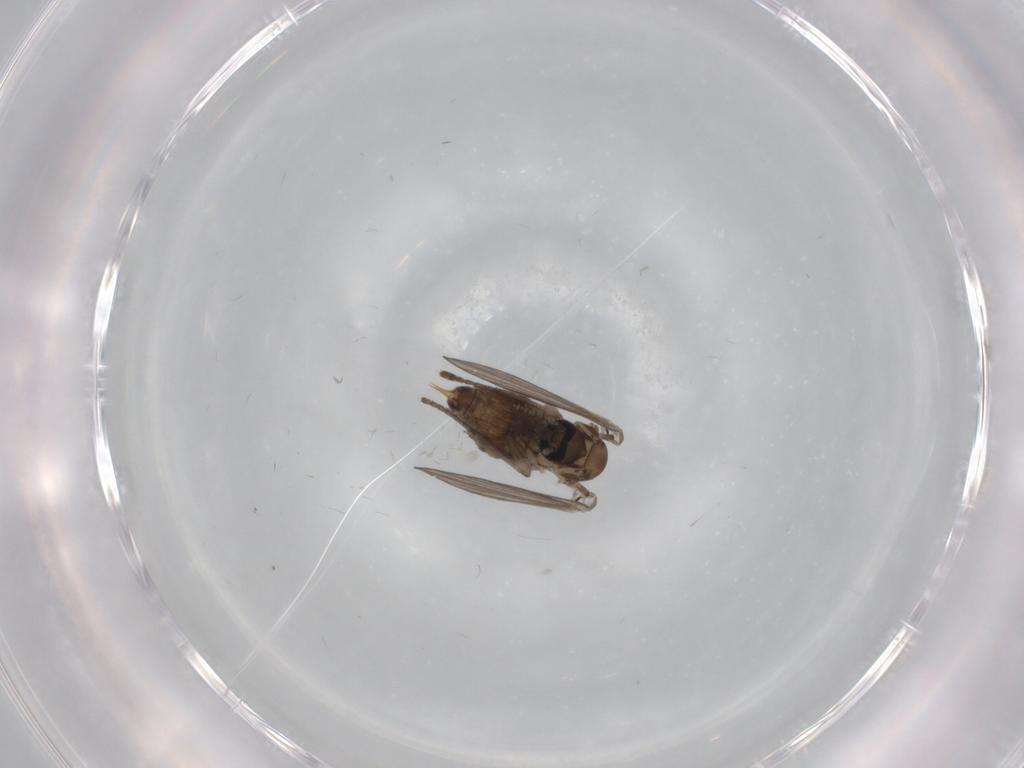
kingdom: Animalia
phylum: Arthropoda
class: Insecta
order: Diptera
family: Psychodidae
